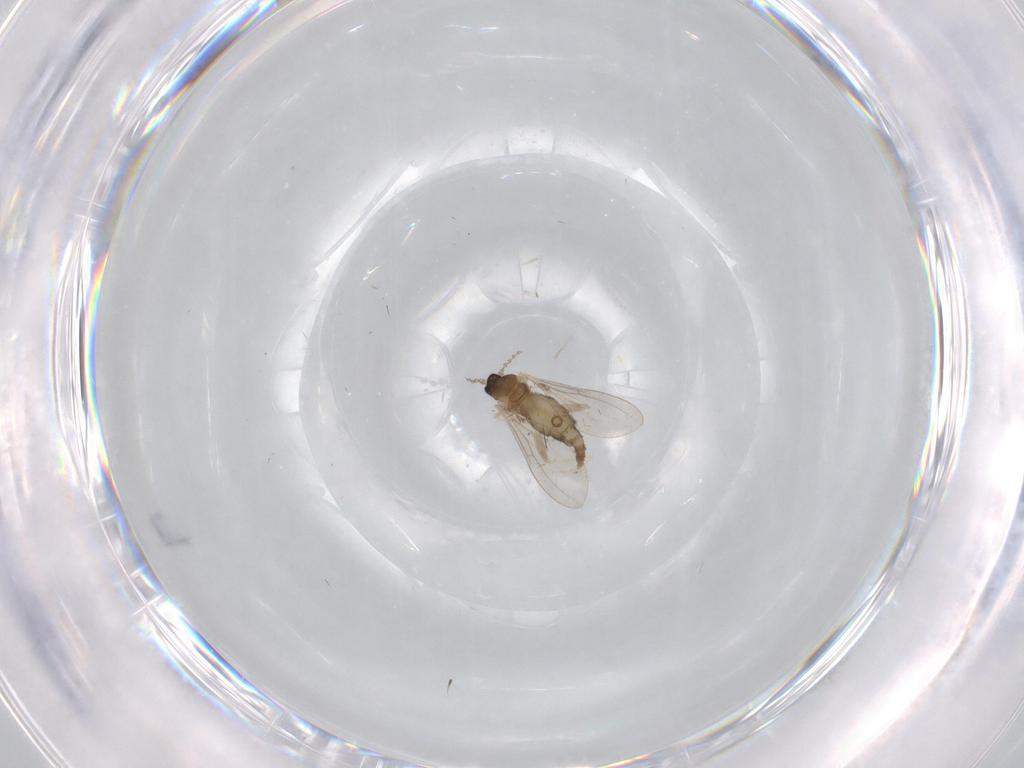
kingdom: Animalia
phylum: Arthropoda
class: Insecta
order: Diptera
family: Cecidomyiidae
